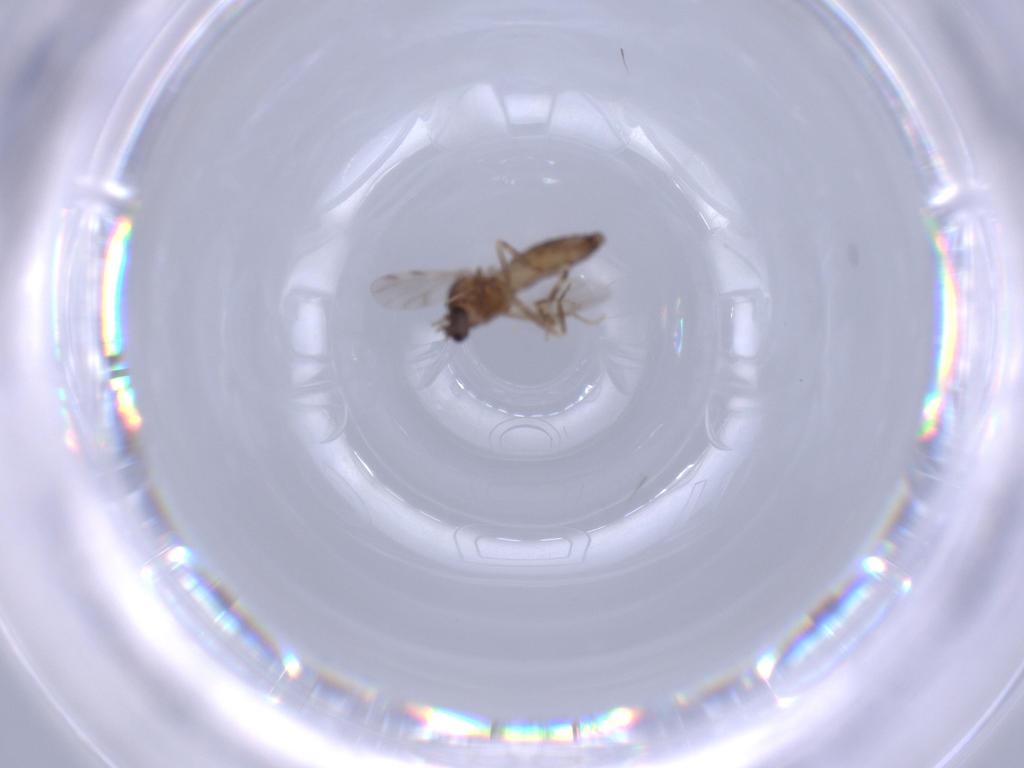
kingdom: Animalia
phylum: Arthropoda
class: Insecta
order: Diptera
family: Ceratopogonidae
